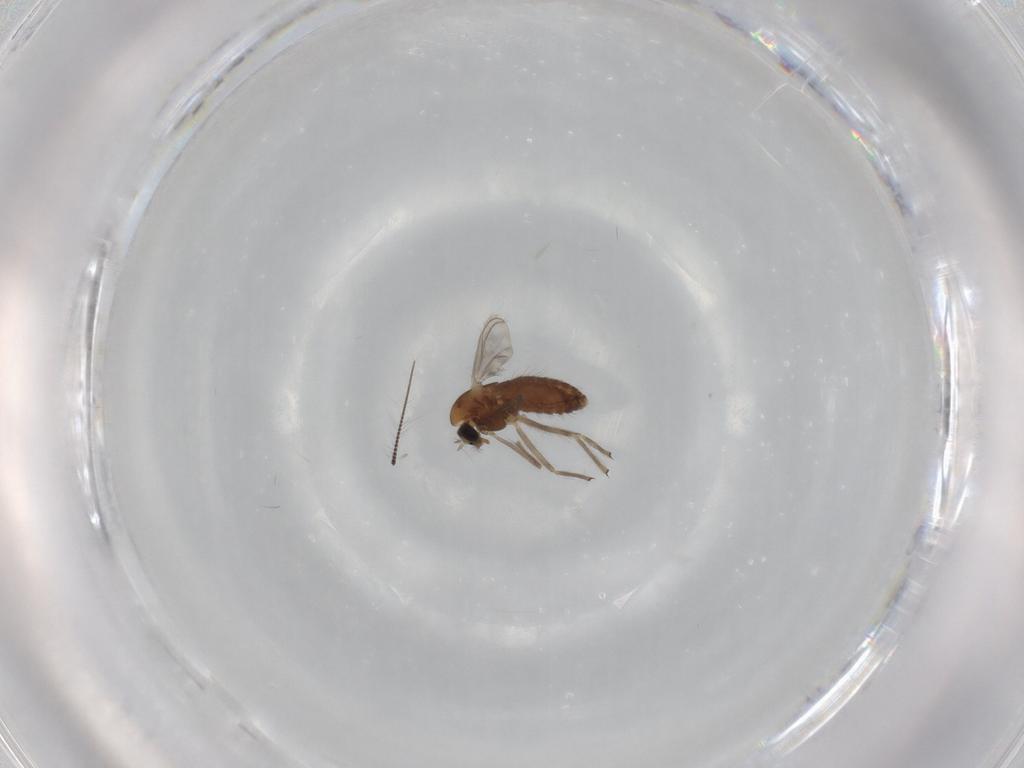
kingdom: Animalia
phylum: Arthropoda
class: Insecta
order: Diptera
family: Chironomidae
